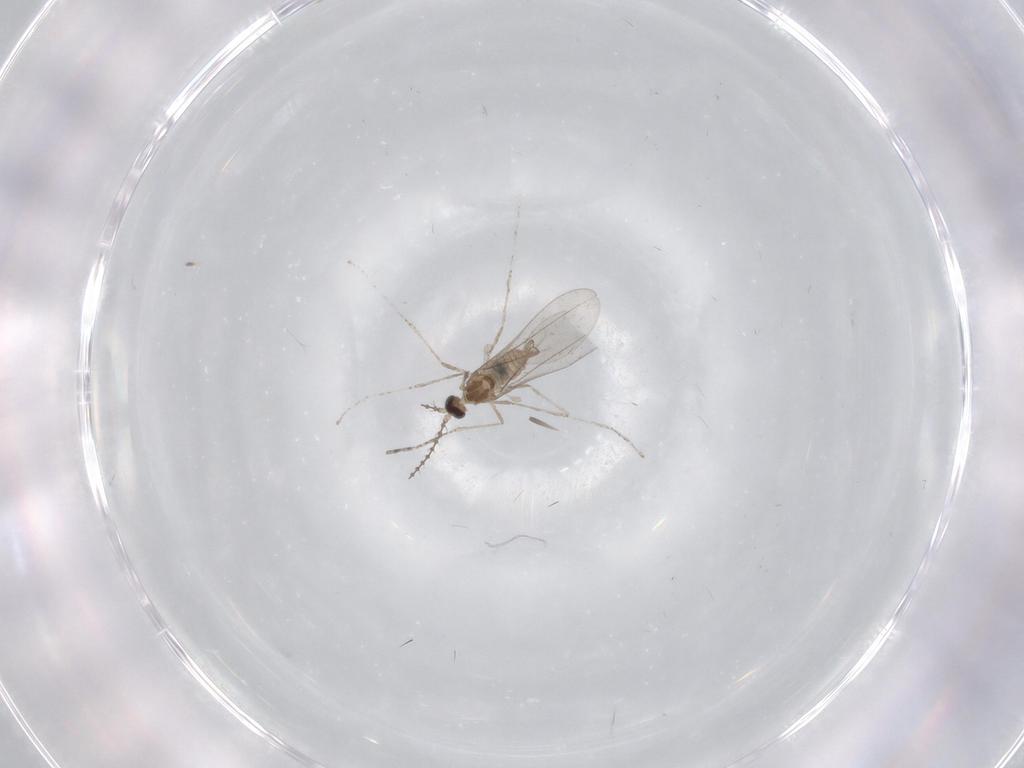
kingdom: Animalia
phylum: Arthropoda
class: Insecta
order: Diptera
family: Cecidomyiidae
